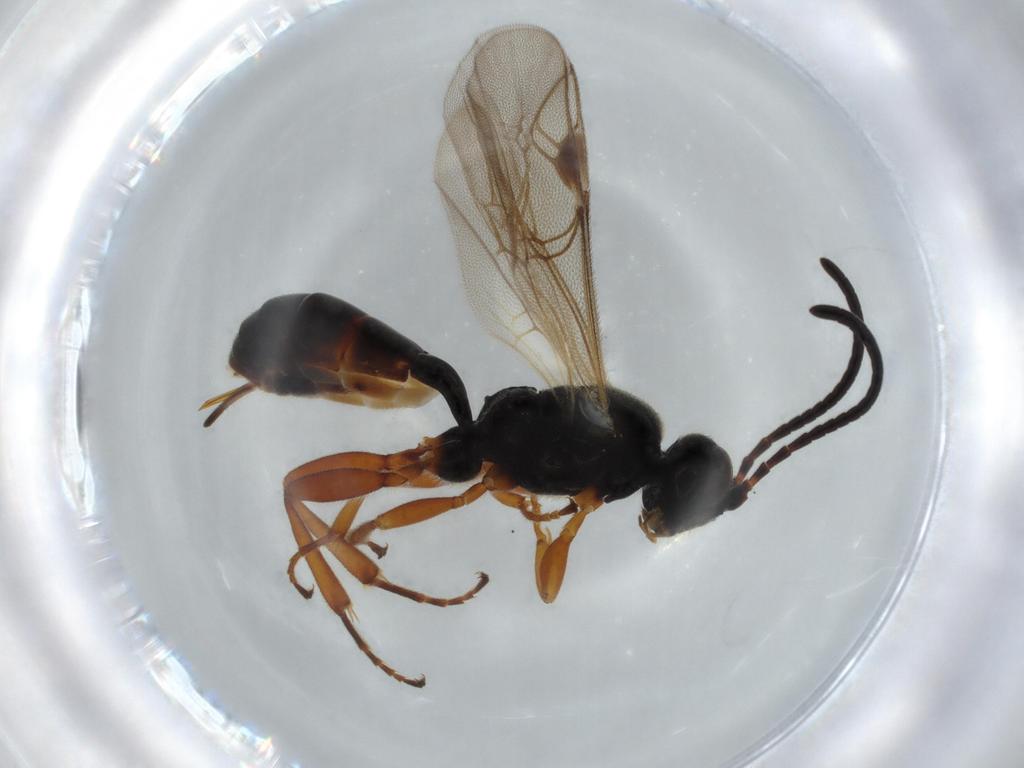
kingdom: Animalia
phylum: Arthropoda
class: Insecta
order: Hymenoptera
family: Ichneumonidae
